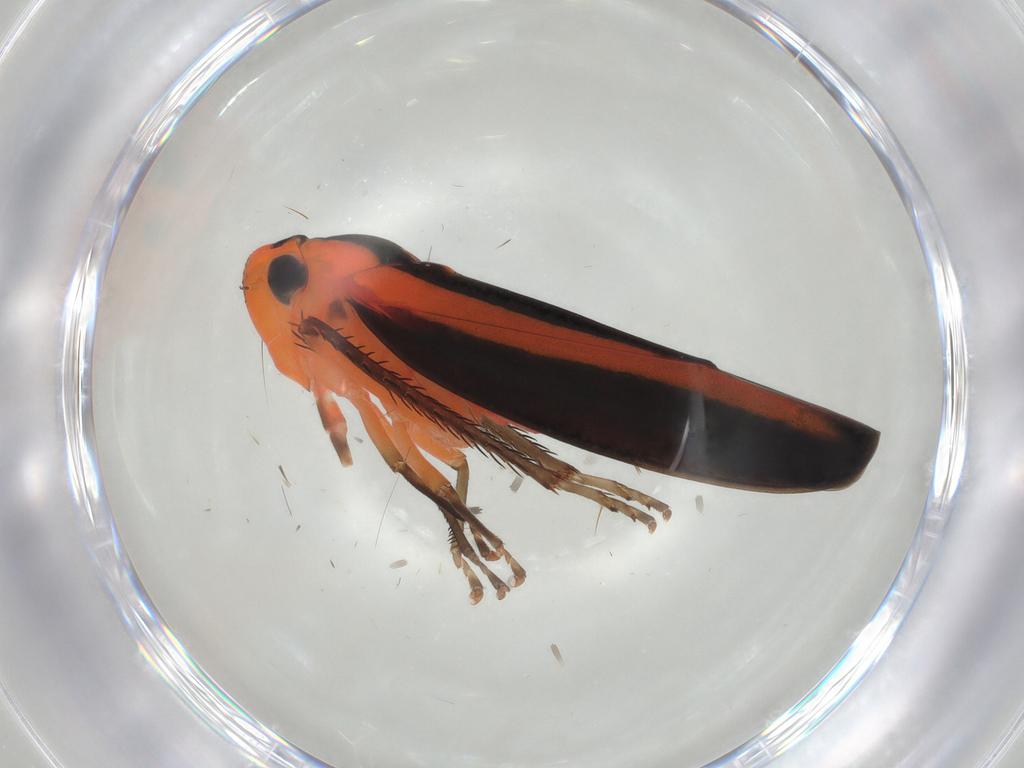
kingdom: Animalia
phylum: Arthropoda
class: Insecta
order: Hemiptera
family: Cicadellidae
